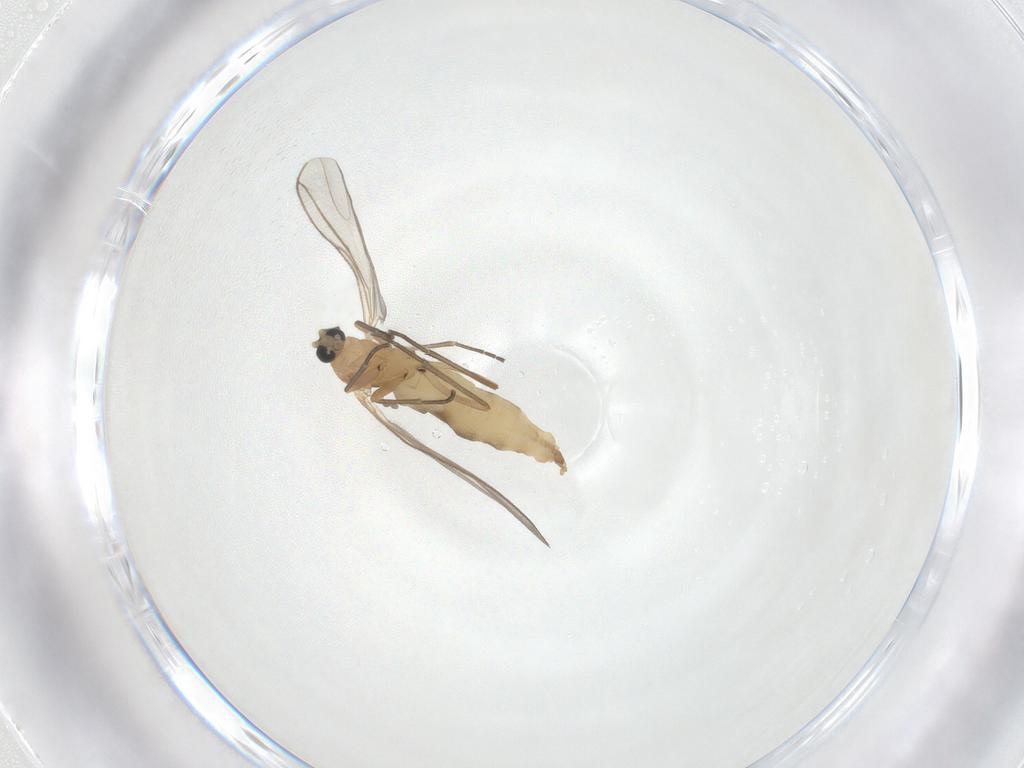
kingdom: Animalia
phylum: Arthropoda
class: Insecta
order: Diptera
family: Sciaridae
